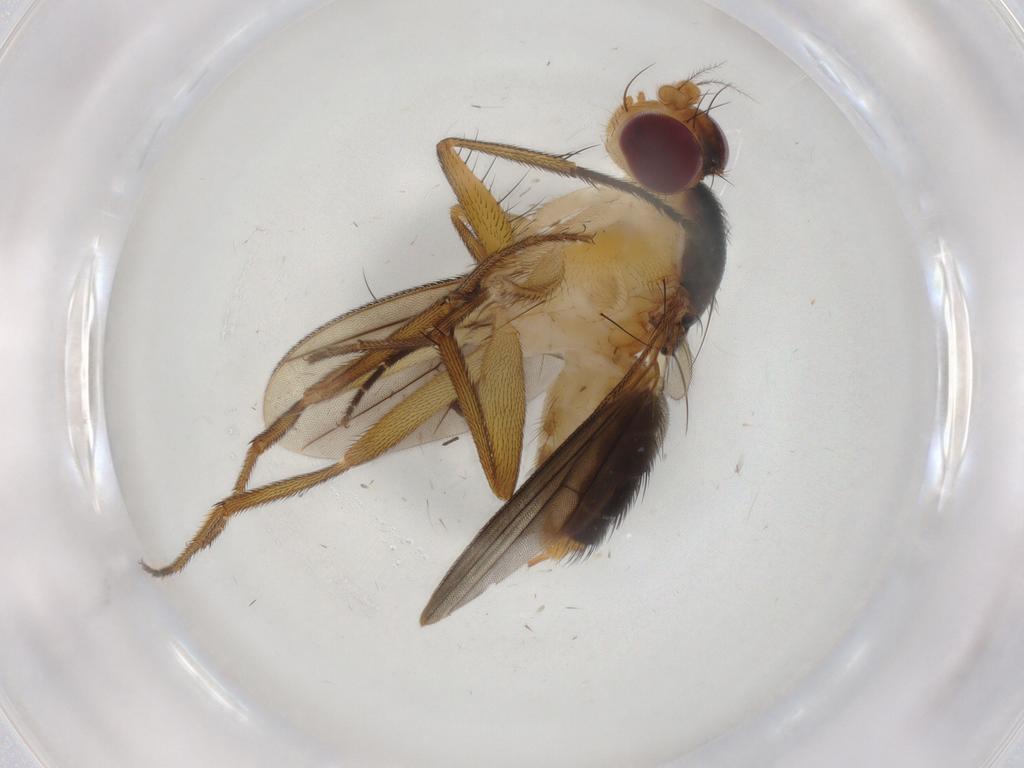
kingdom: Animalia
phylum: Arthropoda
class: Insecta
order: Diptera
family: Clusiidae
